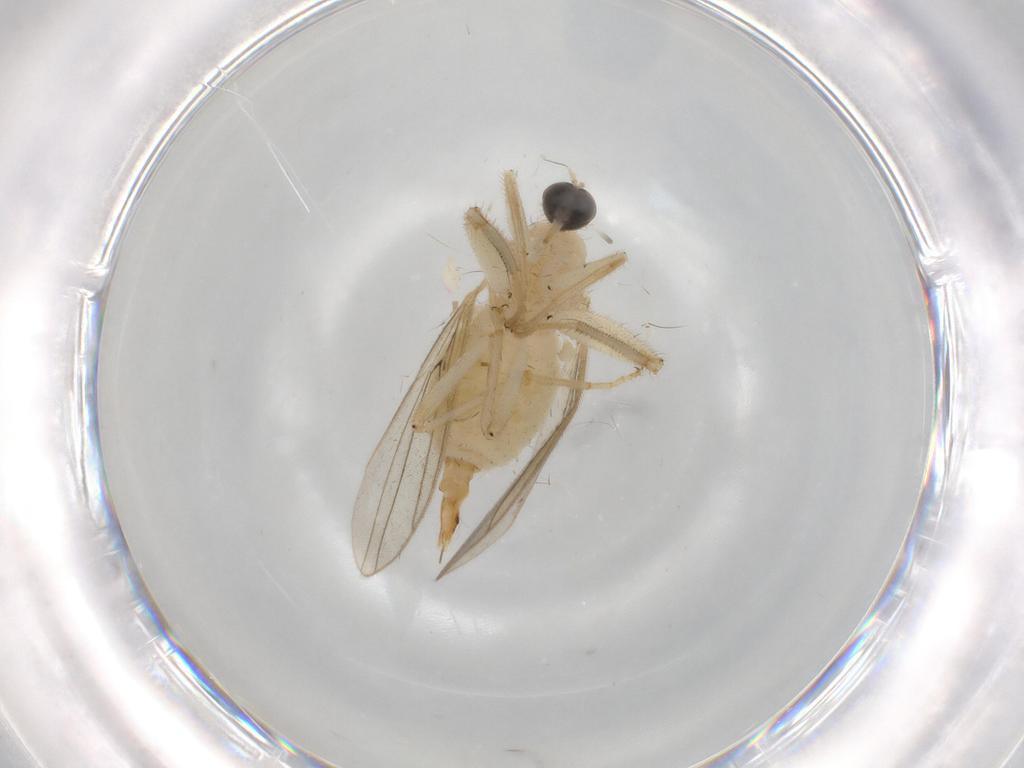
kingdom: Animalia
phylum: Arthropoda
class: Insecta
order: Diptera
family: Hybotidae
